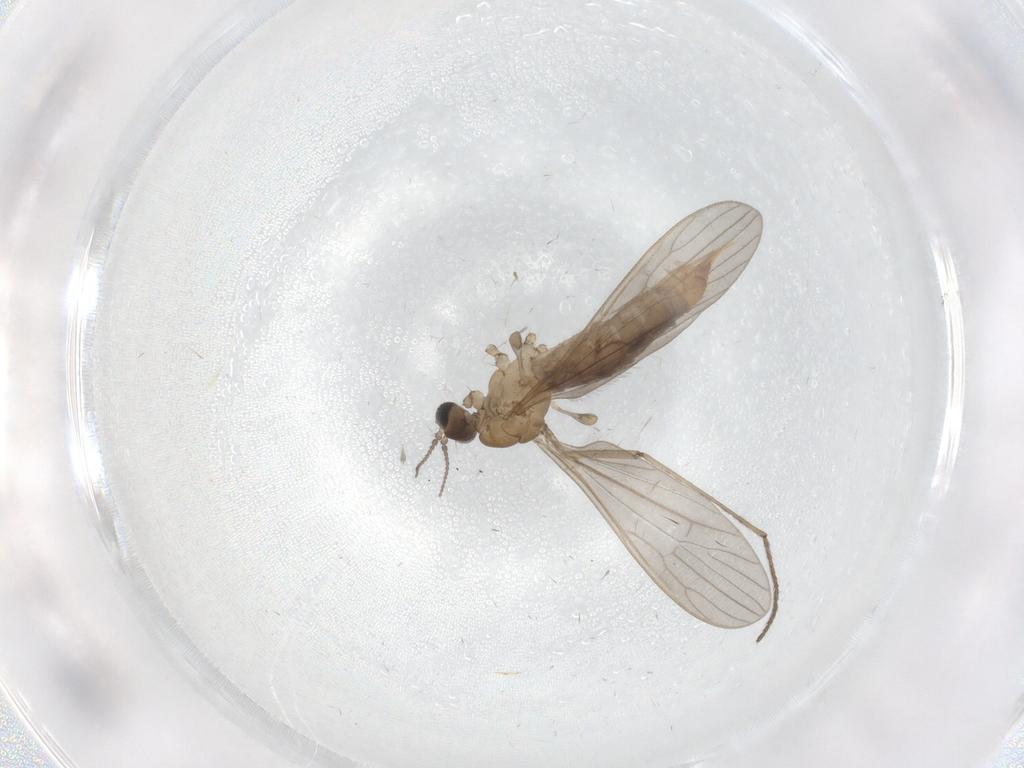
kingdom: Animalia
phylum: Arthropoda
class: Insecta
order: Diptera
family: Limoniidae
